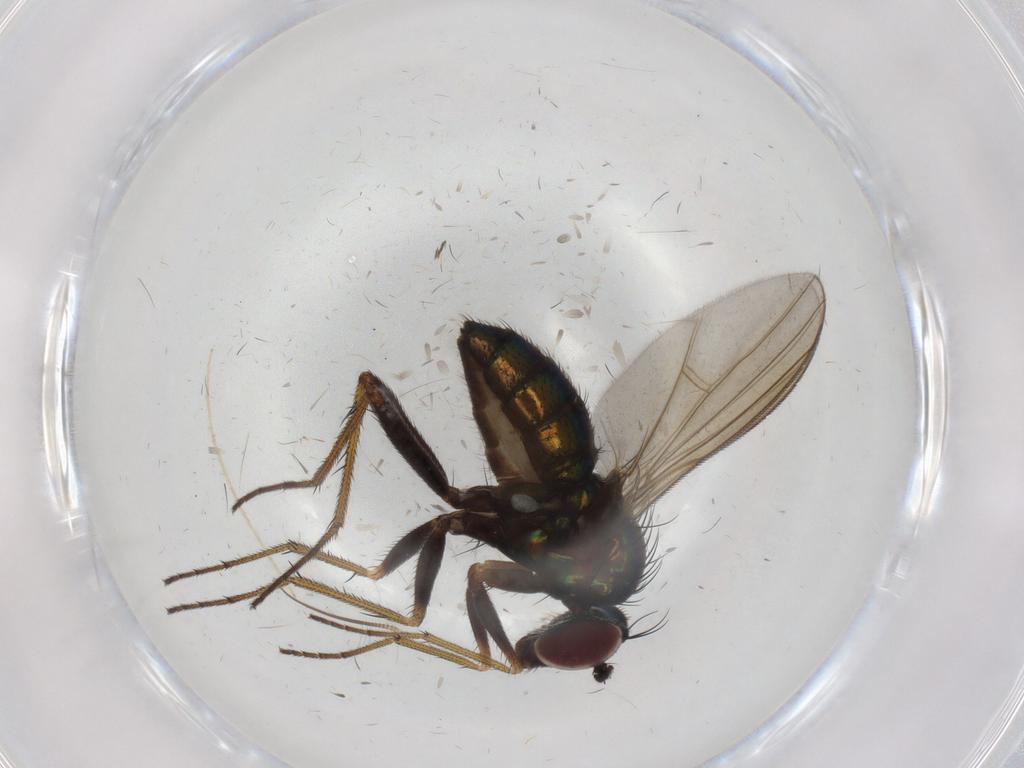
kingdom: Animalia
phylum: Arthropoda
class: Insecta
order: Diptera
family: Dolichopodidae
